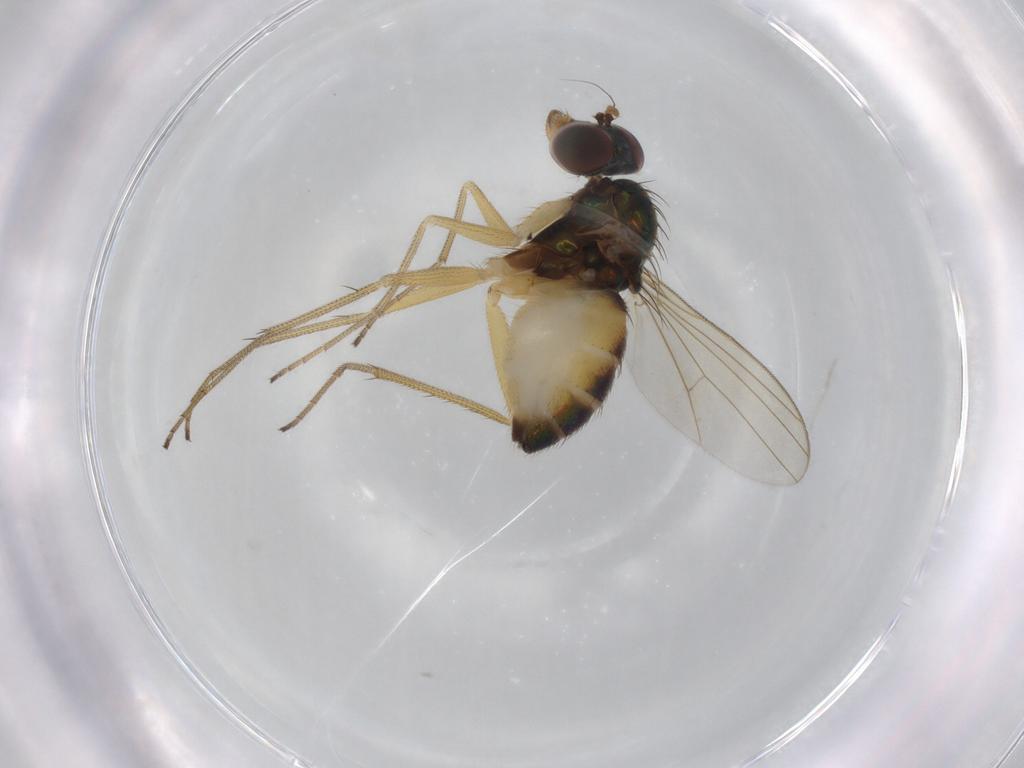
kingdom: Animalia
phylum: Arthropoda
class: Insecta
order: Diptera
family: Dolichopodidae
